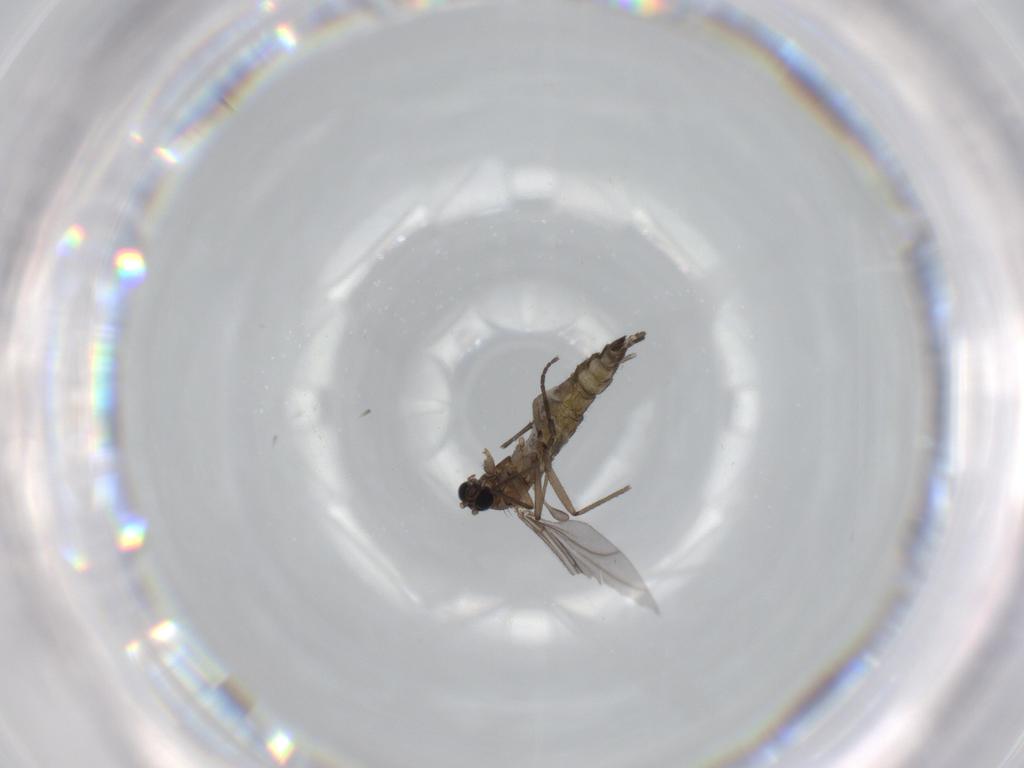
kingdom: Animalia
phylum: Arthropoda
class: Insecta
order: Diptera
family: Sciaridae
